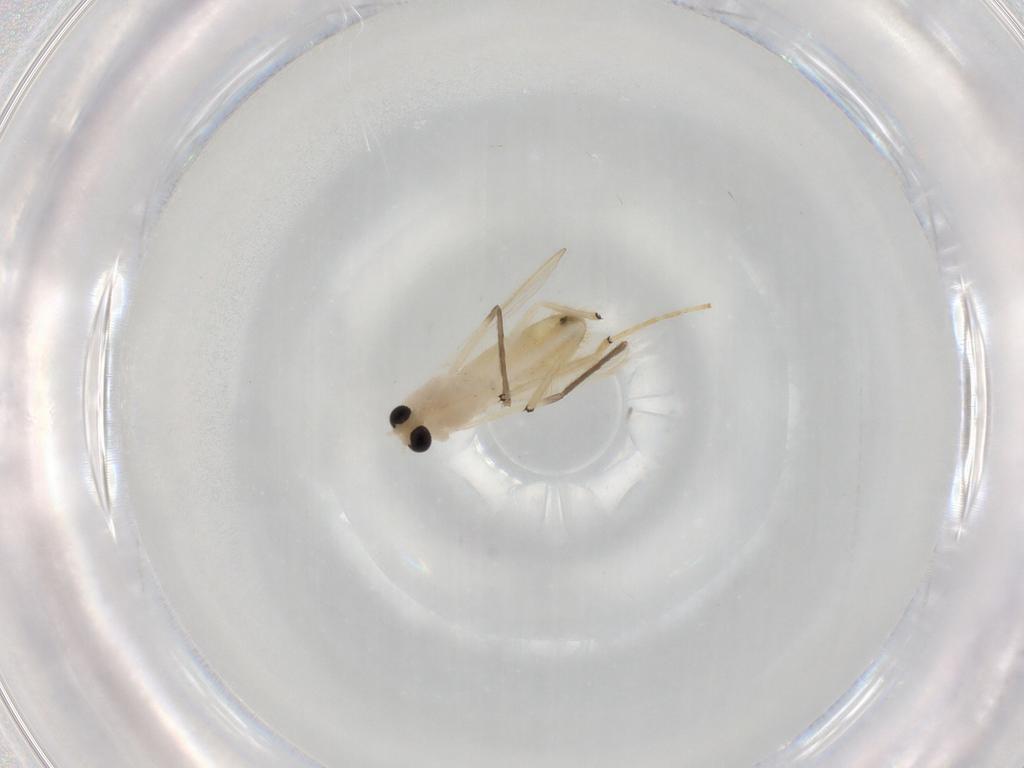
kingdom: Animalia
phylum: Arthropoda
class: Insecta
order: Diptera
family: Chironomidae
